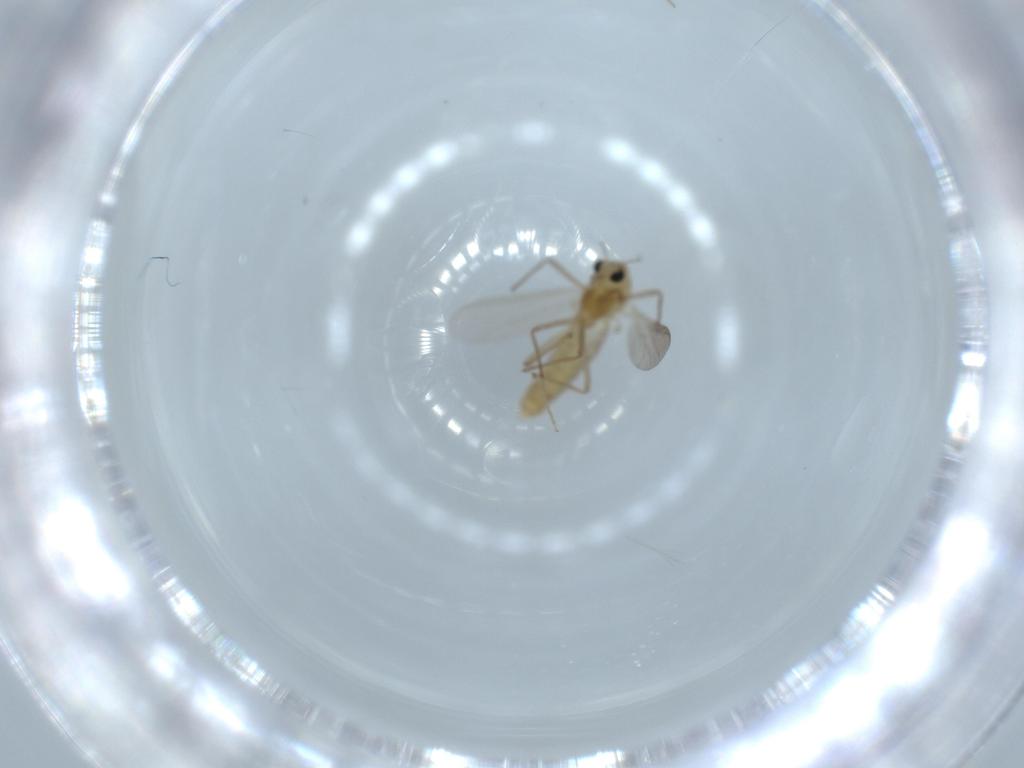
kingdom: Animalia
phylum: Arthropoda
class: Insecta
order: Diptera
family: Chironomidae
